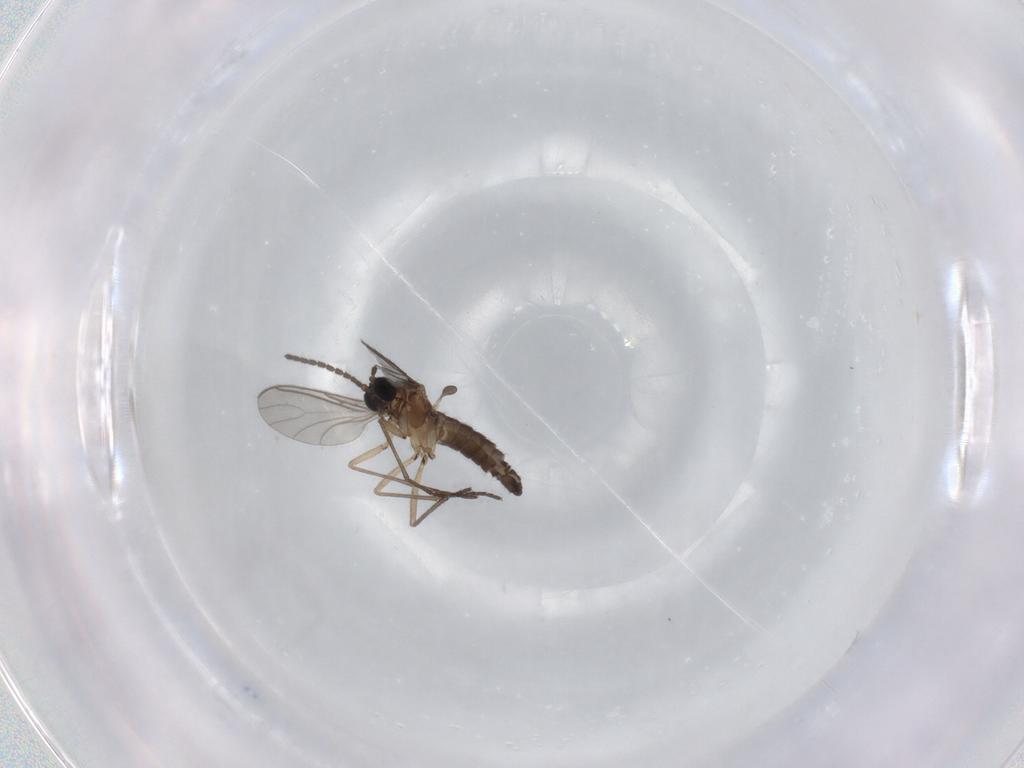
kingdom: Animalia
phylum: Arthropoda
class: Insecta
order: Diptera
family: Sciaridae
